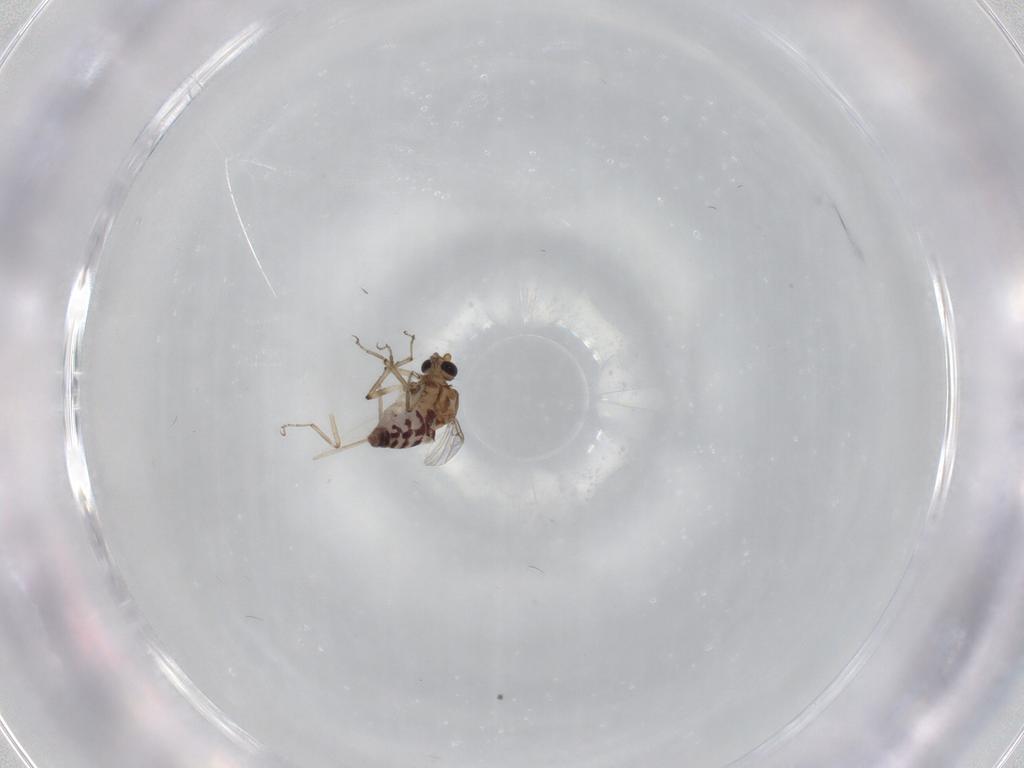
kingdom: Animalia
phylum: Arthropoda
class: Insecta
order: Diptera
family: Ceratopogonidae
